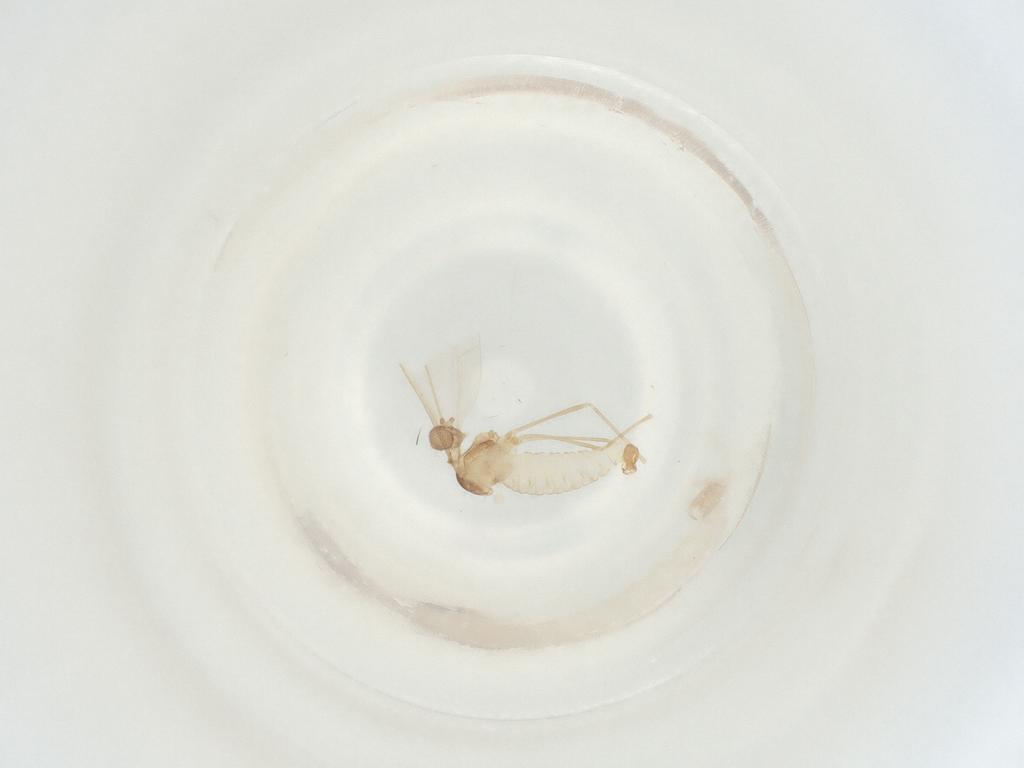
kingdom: Animalia
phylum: Arthropoda
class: Insecta
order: Diptera
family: Cecidomyiidae
